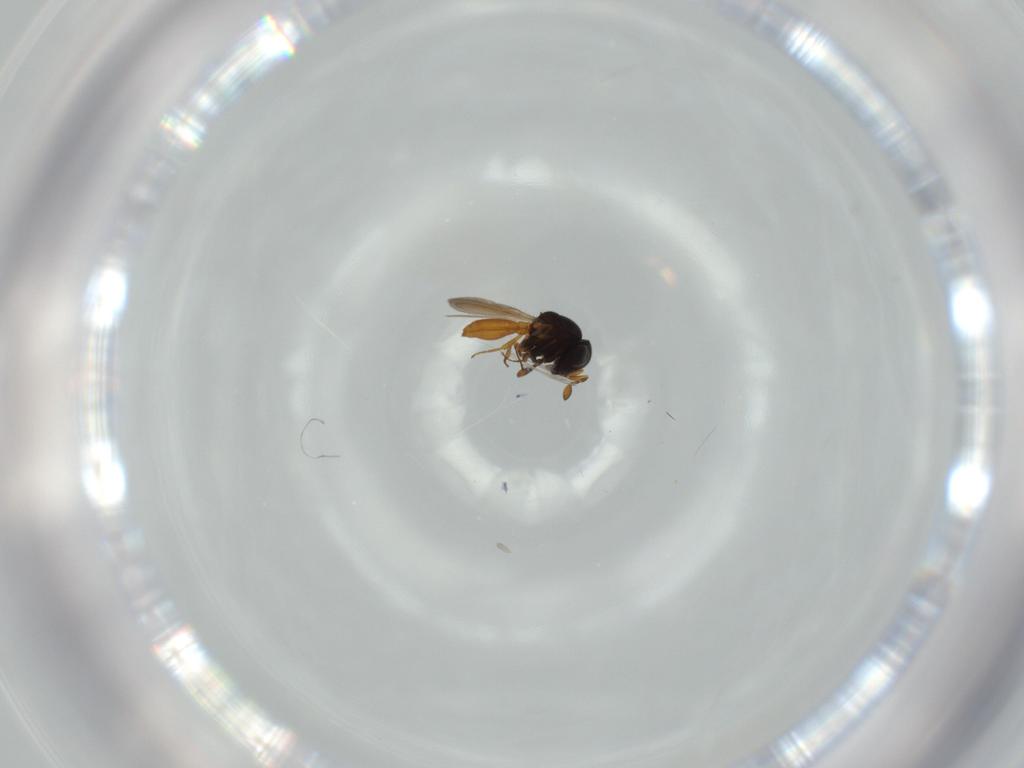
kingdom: Animalia
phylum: Arthropoda
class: Insecta
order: Hymenoptera
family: Scelionidae
